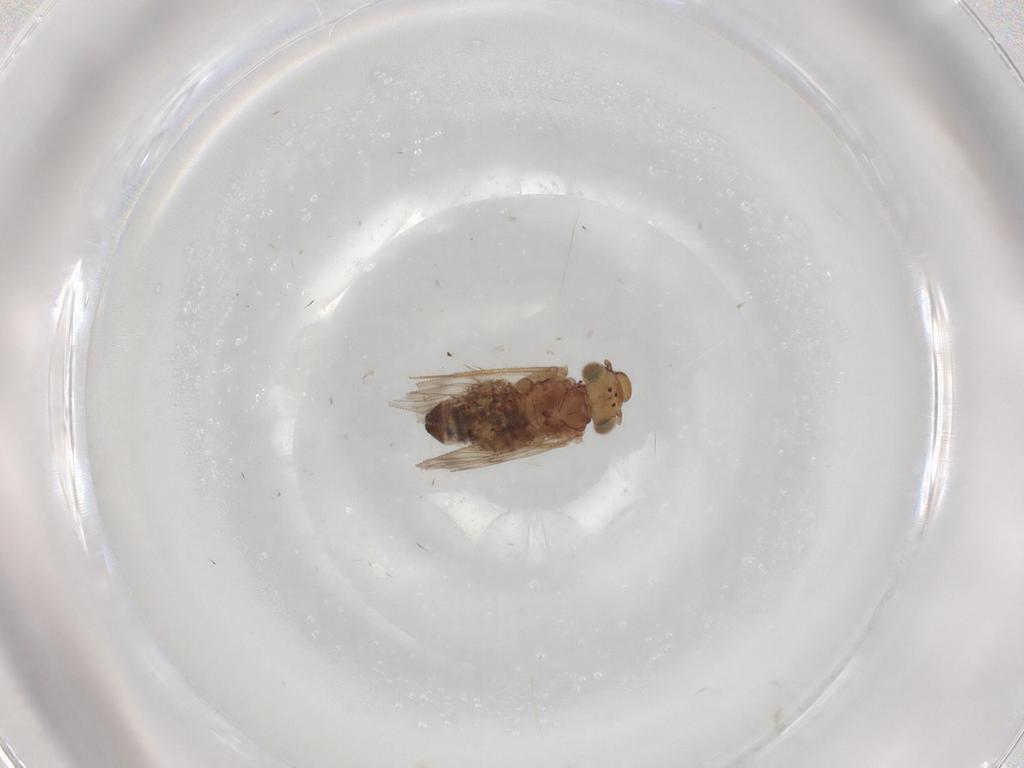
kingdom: Animalia
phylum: Arthropoda
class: Insecta
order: Psocodea
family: Lepidopsocidae
